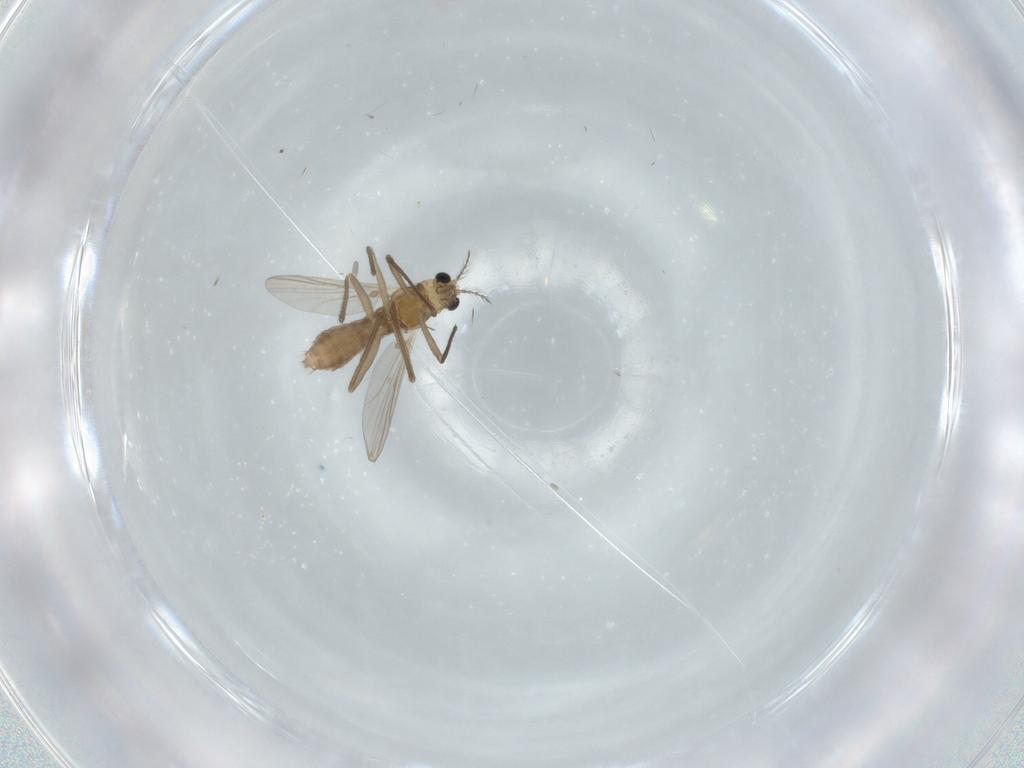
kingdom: Animalia
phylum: Arthropoda
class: Insecta
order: Diptera
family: Chironomidae
